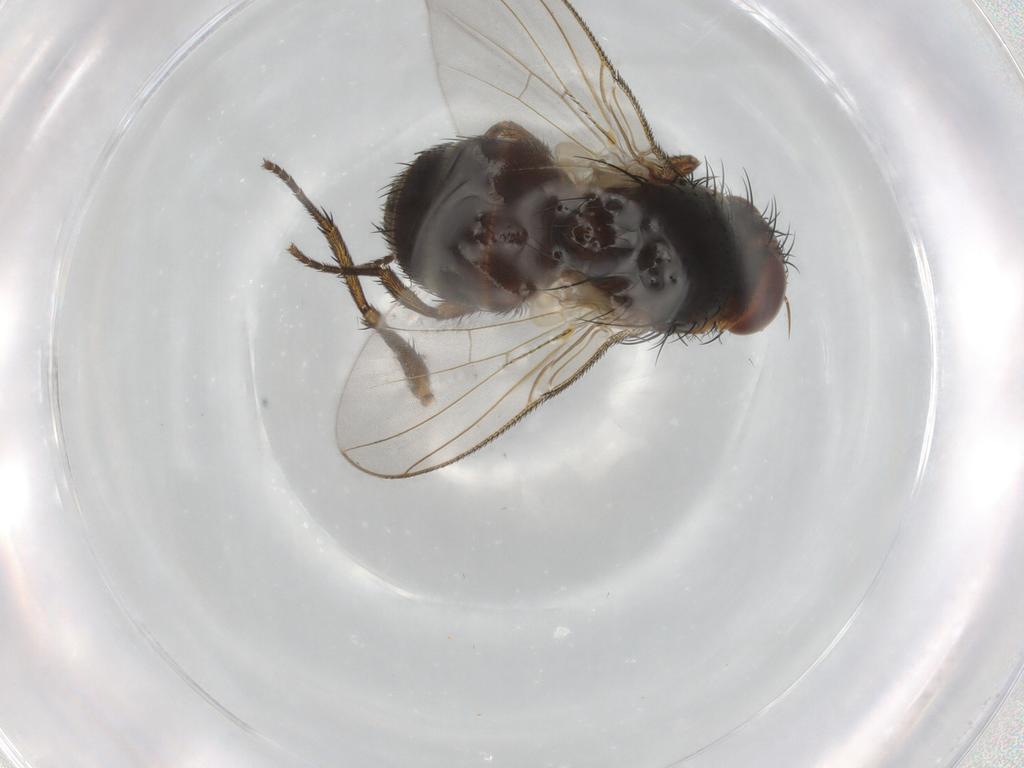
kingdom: Animalia
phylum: Arthropoda
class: Insecta
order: Diptera
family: Tachinidae
